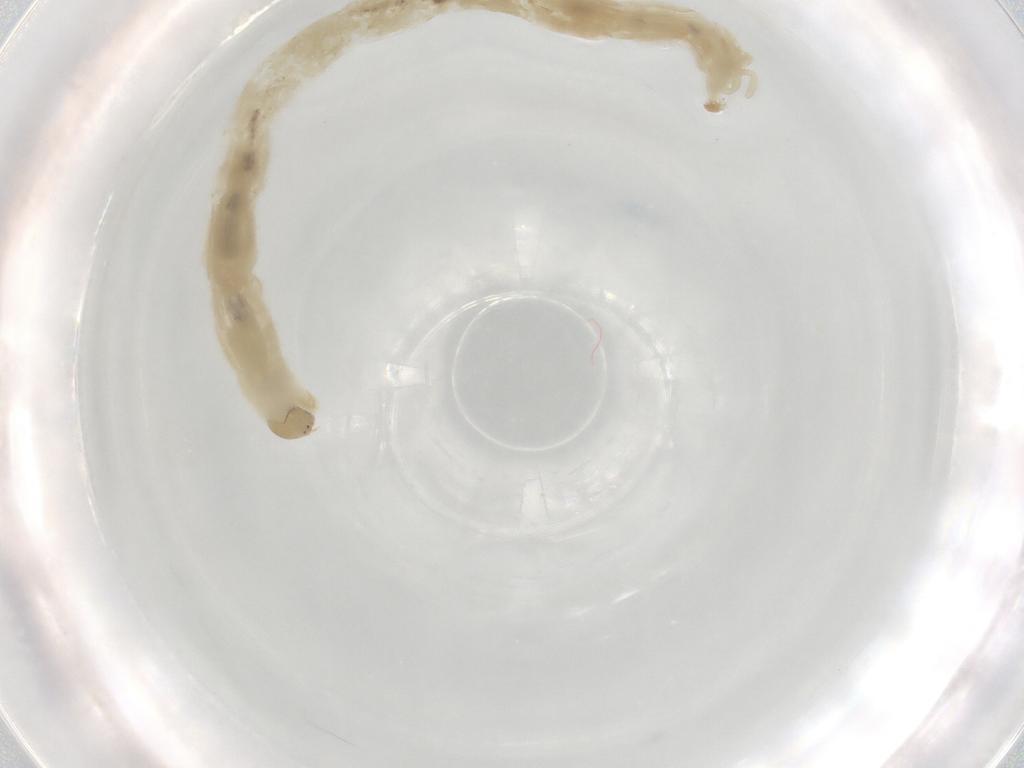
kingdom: Animalia
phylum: Arthropoda
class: Insecta
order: Diptera
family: Chironomidae
